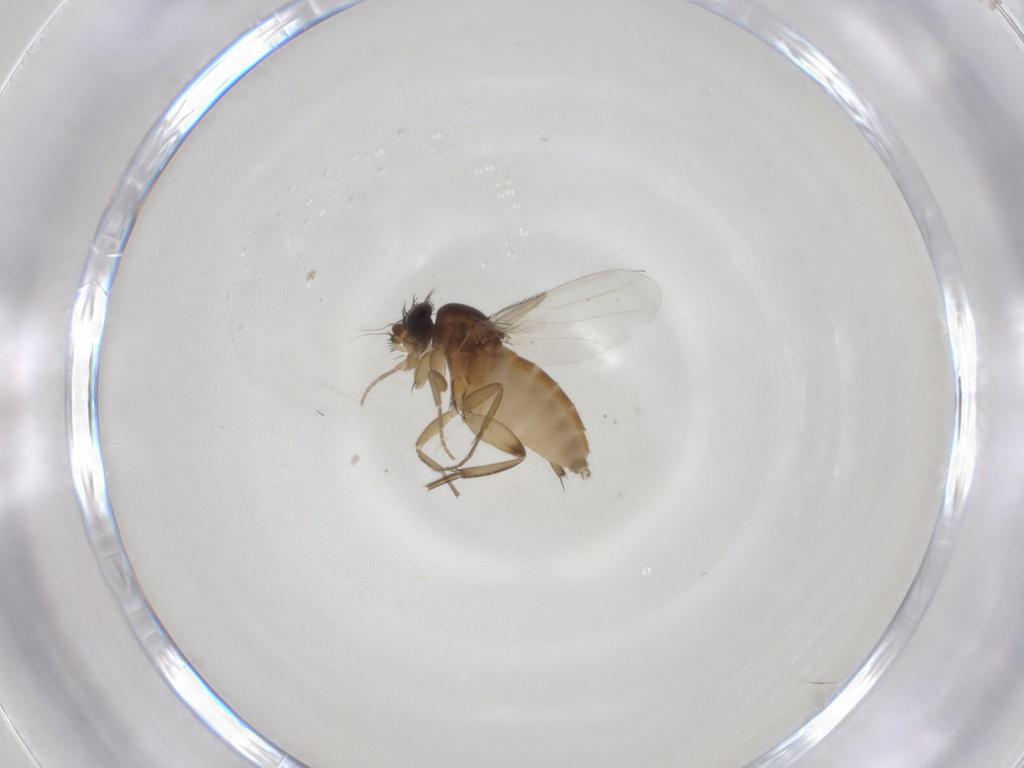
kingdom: Animalia
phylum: Arthropoda
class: Insecta
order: Diptera
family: Phoridae
